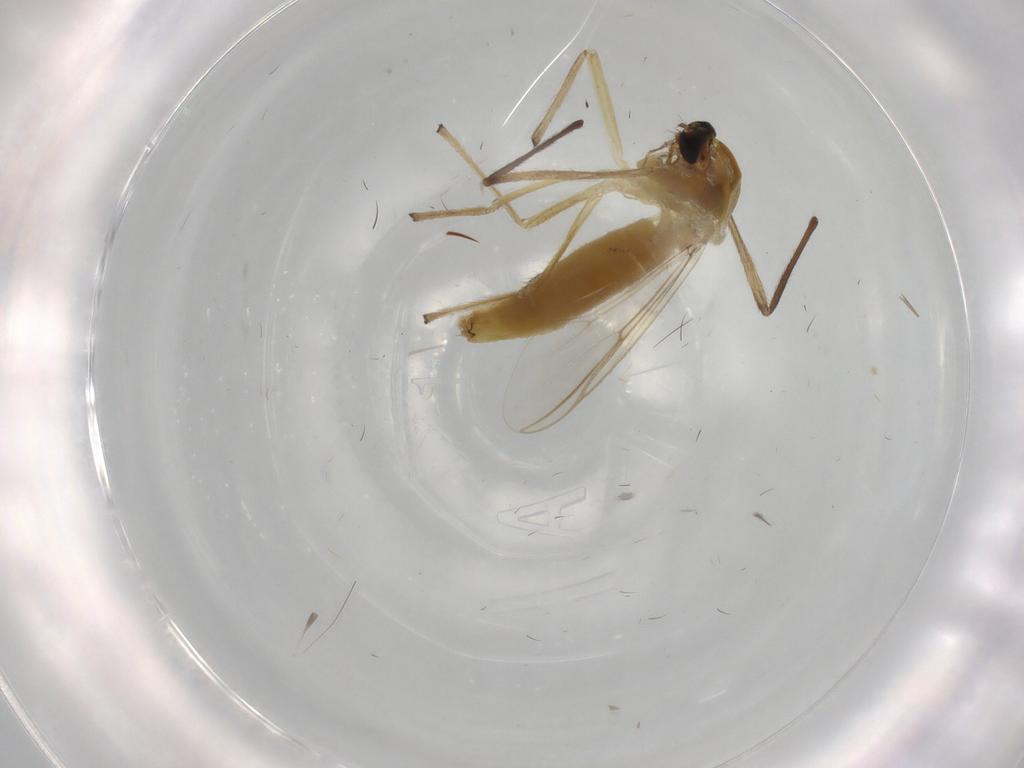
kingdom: Animalia
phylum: Arthropoda
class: Insecta
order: Diptera
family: Chironomidae
